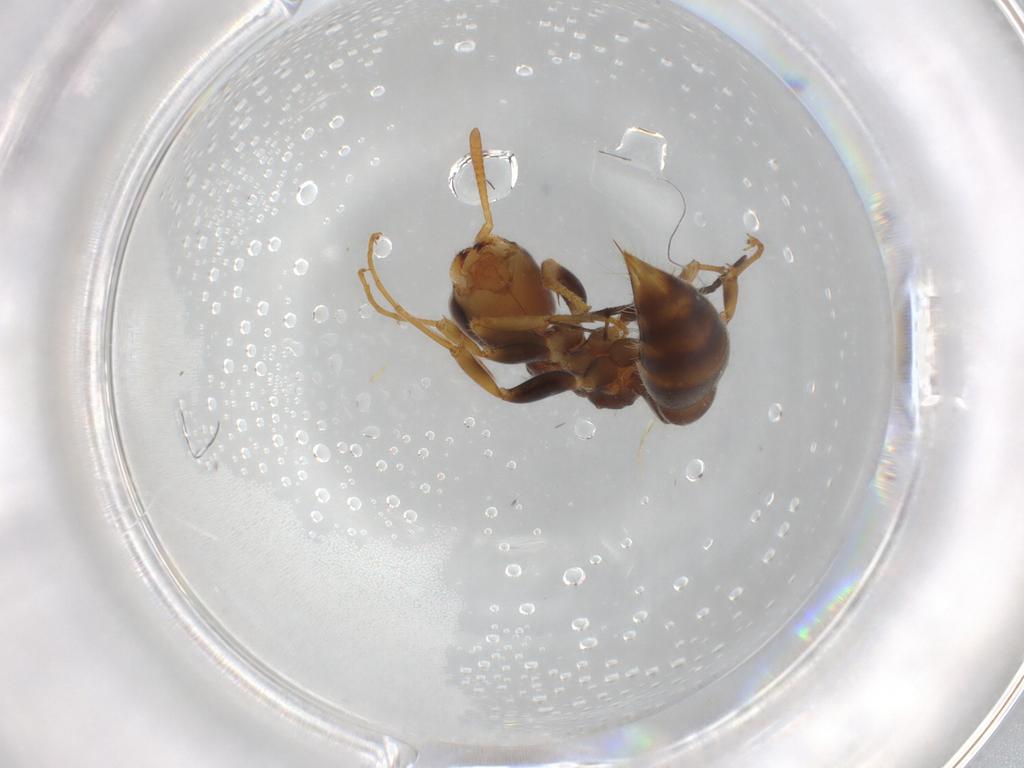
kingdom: Animalia
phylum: Arthropoda
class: Insecta
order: Hymenoptera
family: Formicidae
